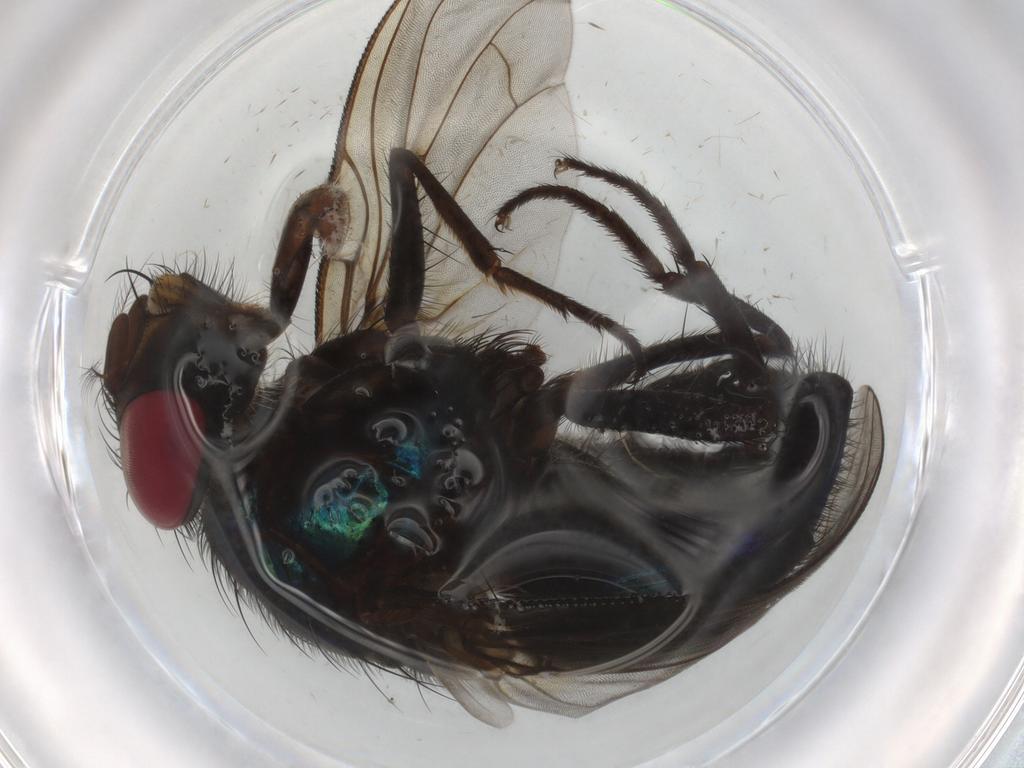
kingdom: Animalia
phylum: Arthropoda
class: Insecta
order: Diptera
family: Calliphoridae
